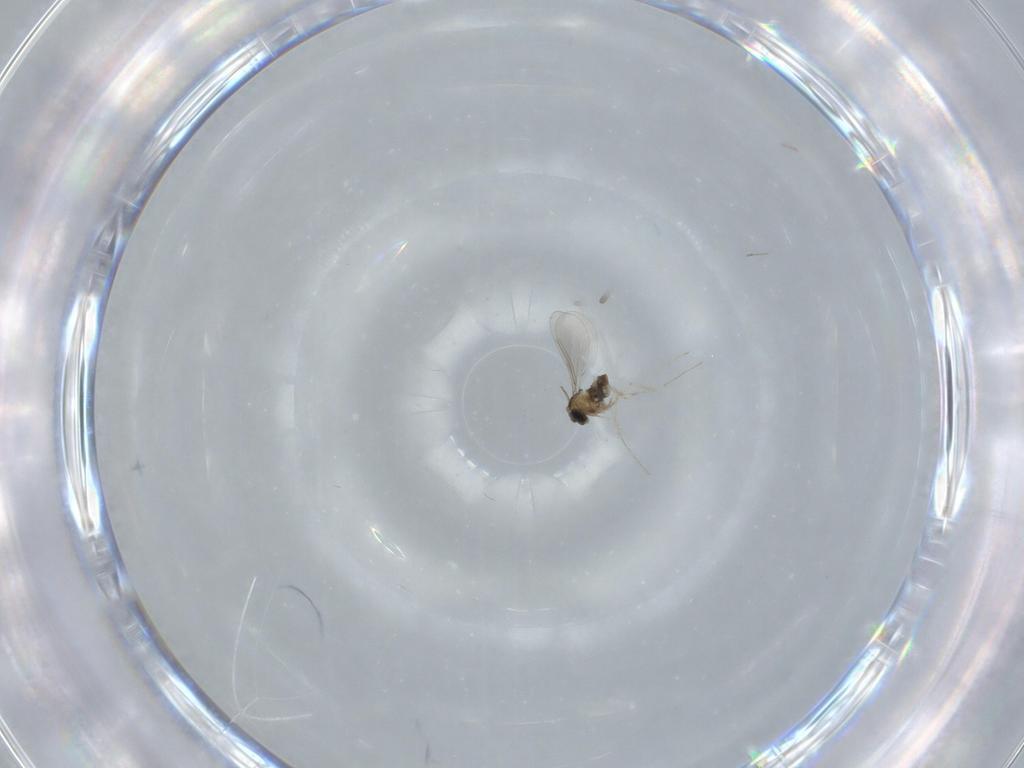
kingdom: Animalia
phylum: Arthropoda
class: Insecta
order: Diptera
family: Cecidomyiidae
